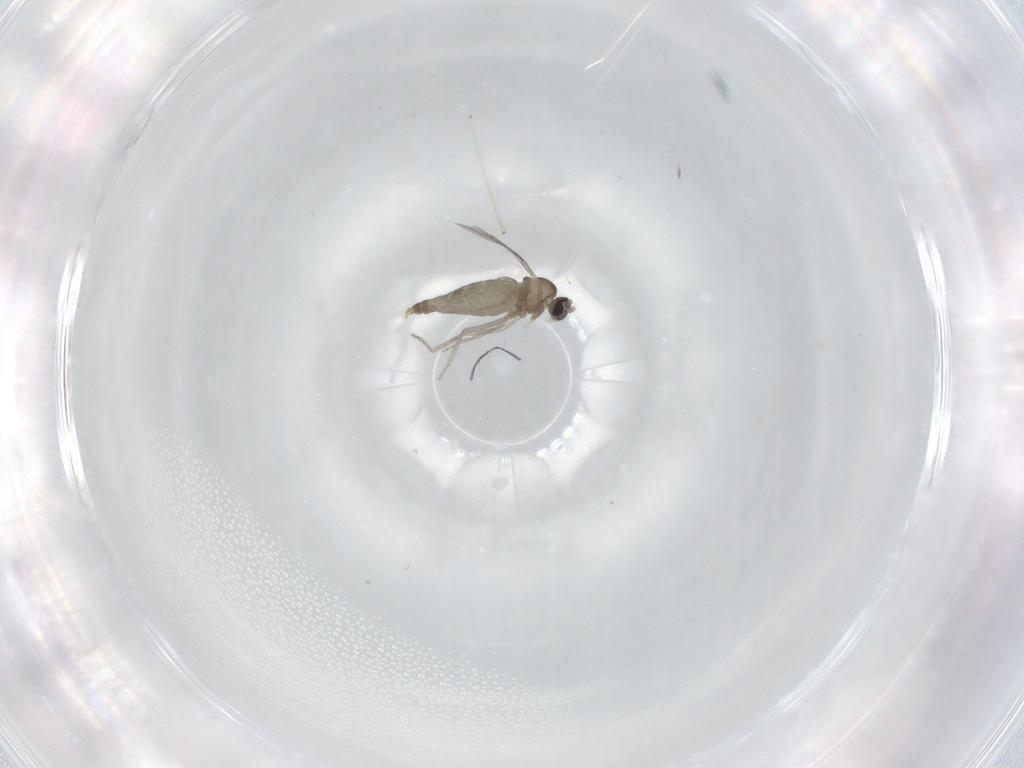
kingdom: Animalia
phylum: Arthropoda
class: Insecta
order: Diptera
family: Cecidomyiidae
